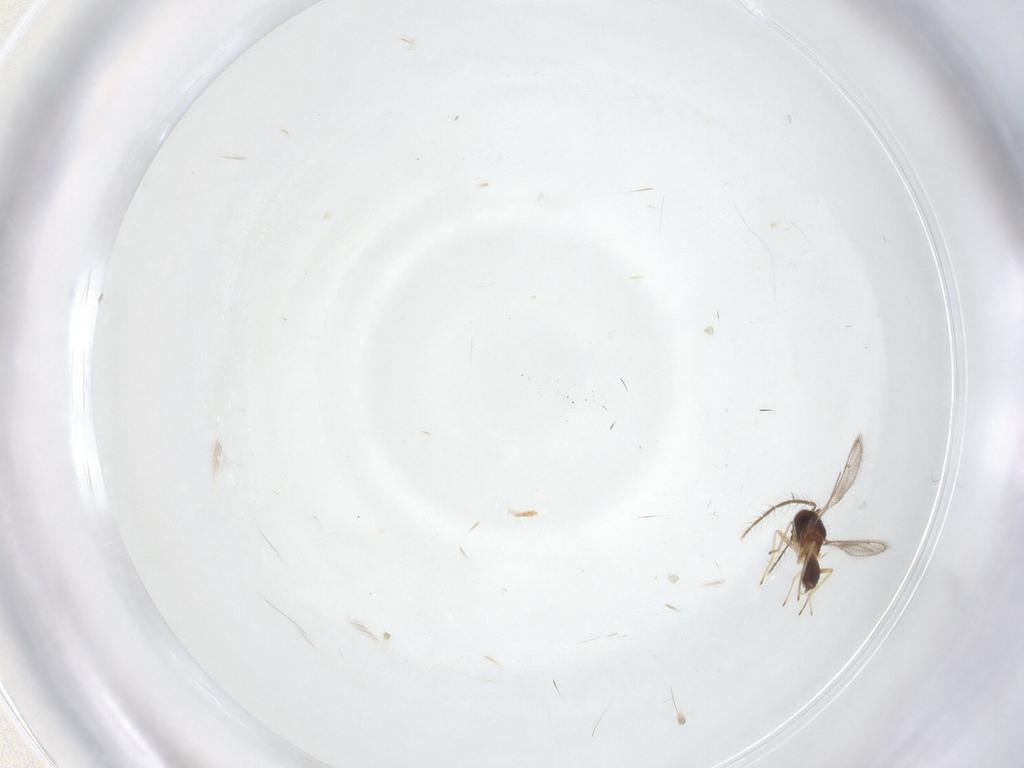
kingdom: Animalia
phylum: Arthropoda
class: Insecta
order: Hymenoptera
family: Eulophidae
